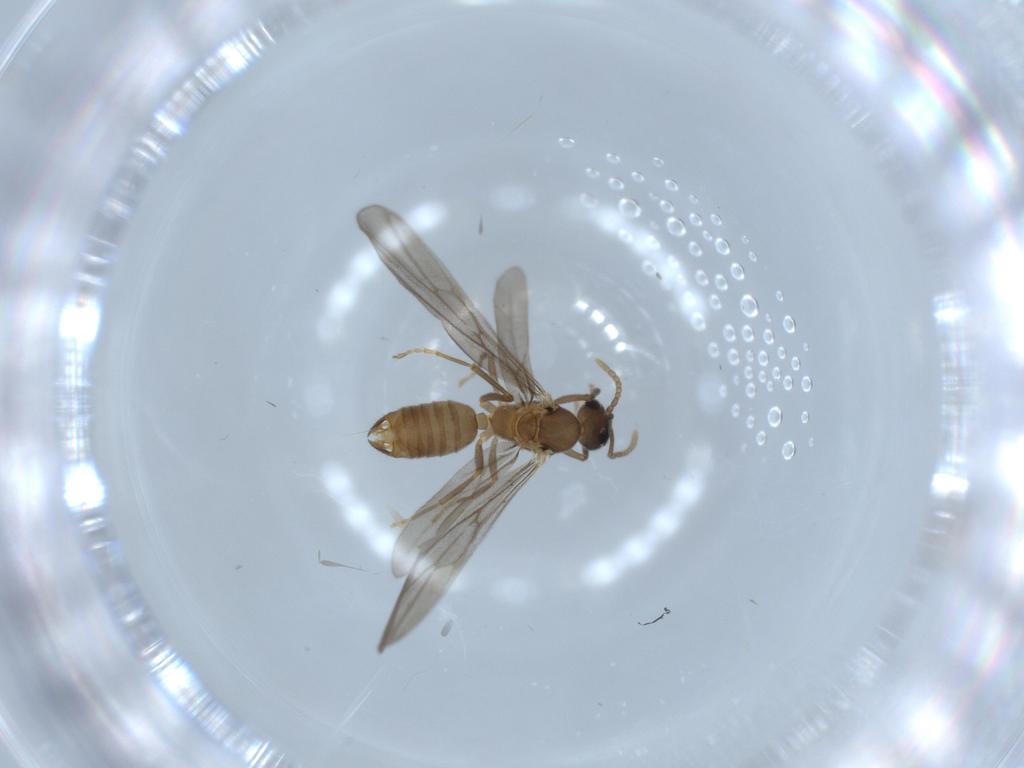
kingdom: Animalia
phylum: Arthropoda
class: Insecta
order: Hymenoptera
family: Formicidae
